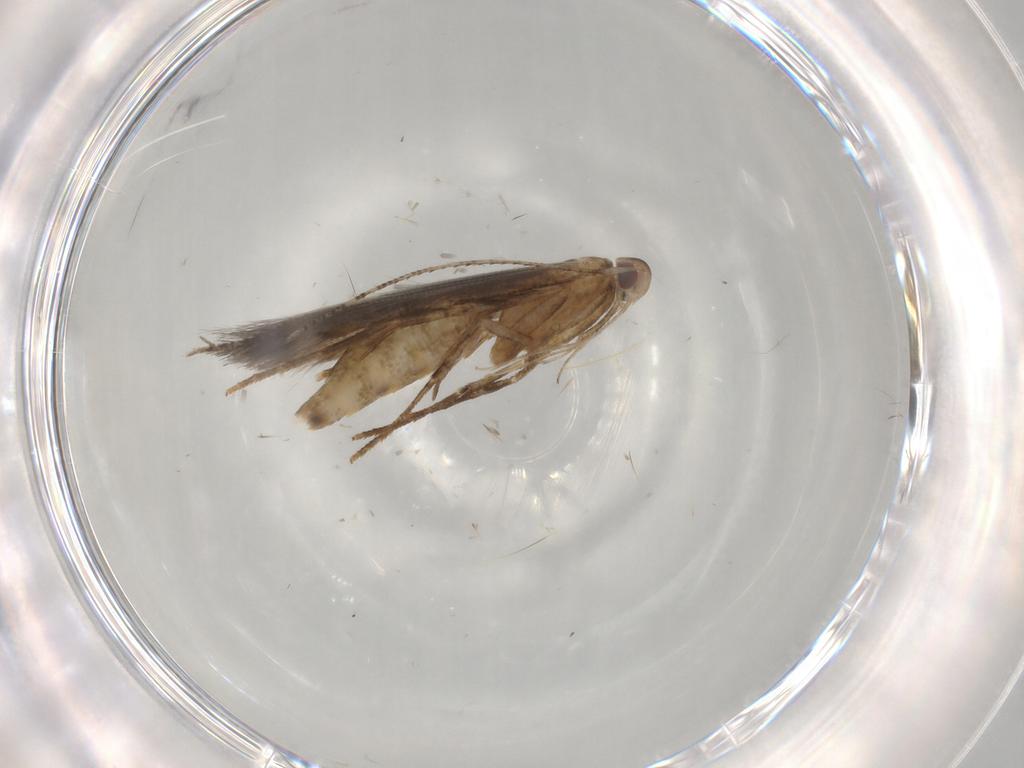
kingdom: Animalia
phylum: Arthropoda
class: Insecta
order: Lepidoptera
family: Cosmopterigidae
